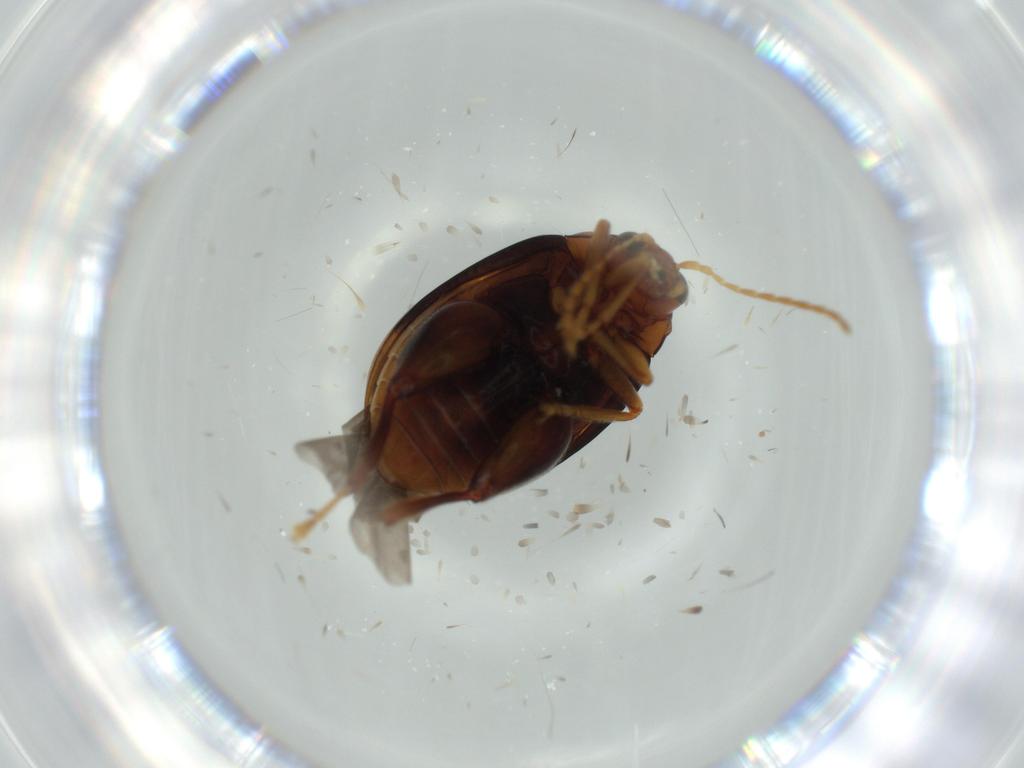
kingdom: Animalia
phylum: Arthropoda
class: Insecta
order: Coleoptera
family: Chrysomelidae
